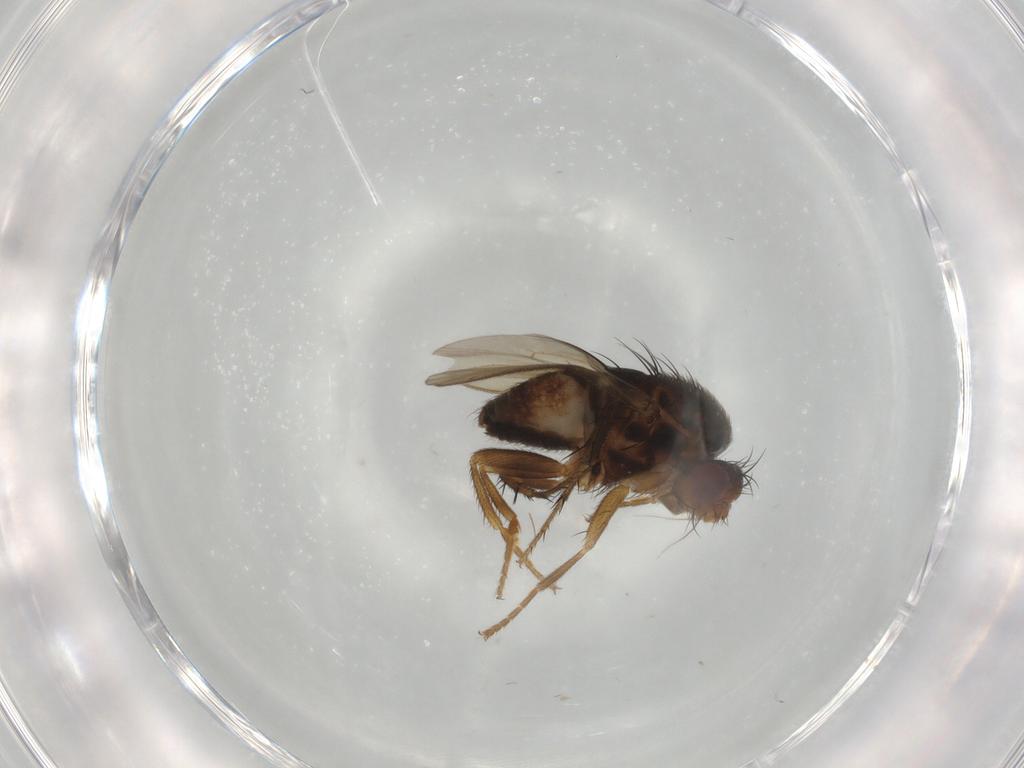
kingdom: Animalia
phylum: Arthropoda
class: Insecta
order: Diptera
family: Sphaeroceridae
